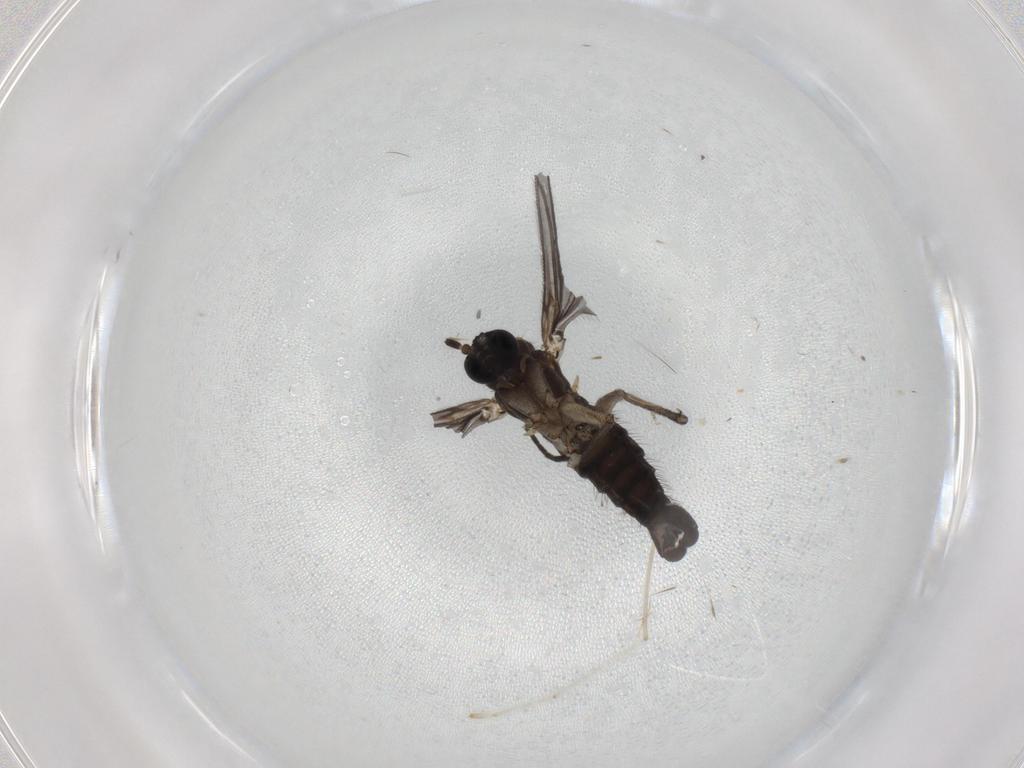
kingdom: Animalia
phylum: Arthropoda
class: Insecta
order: Diptera
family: Sciaridae
